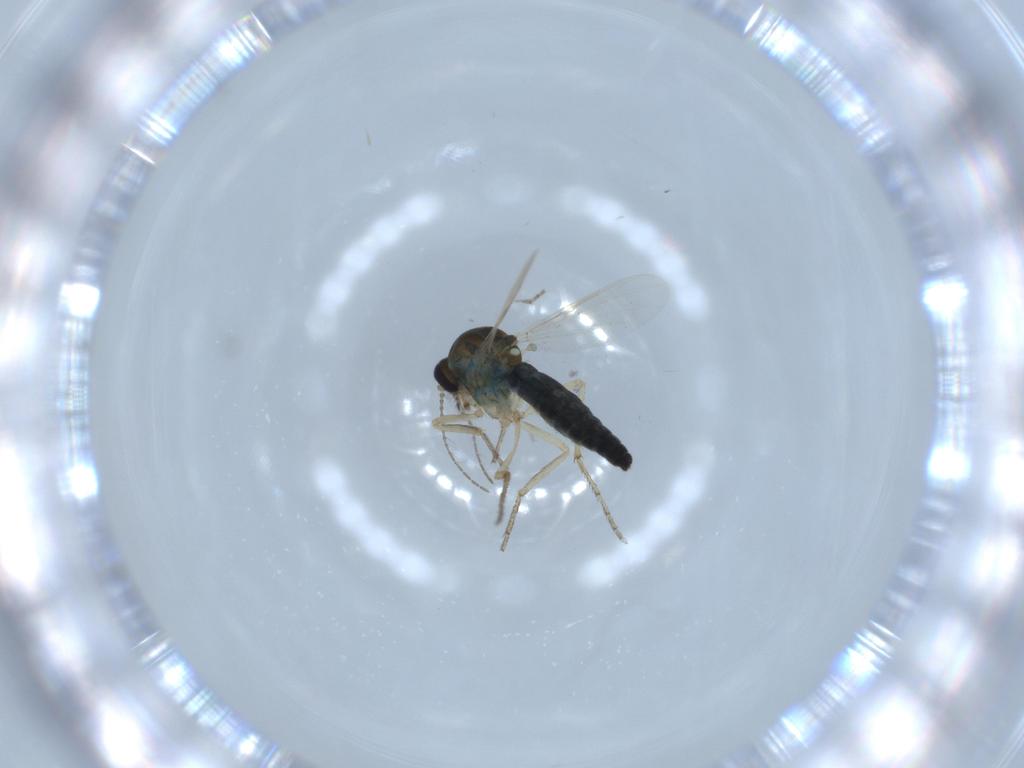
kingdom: Animalia
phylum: Arthropoda
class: Insecta
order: Diptera
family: Ceratopogonidae
